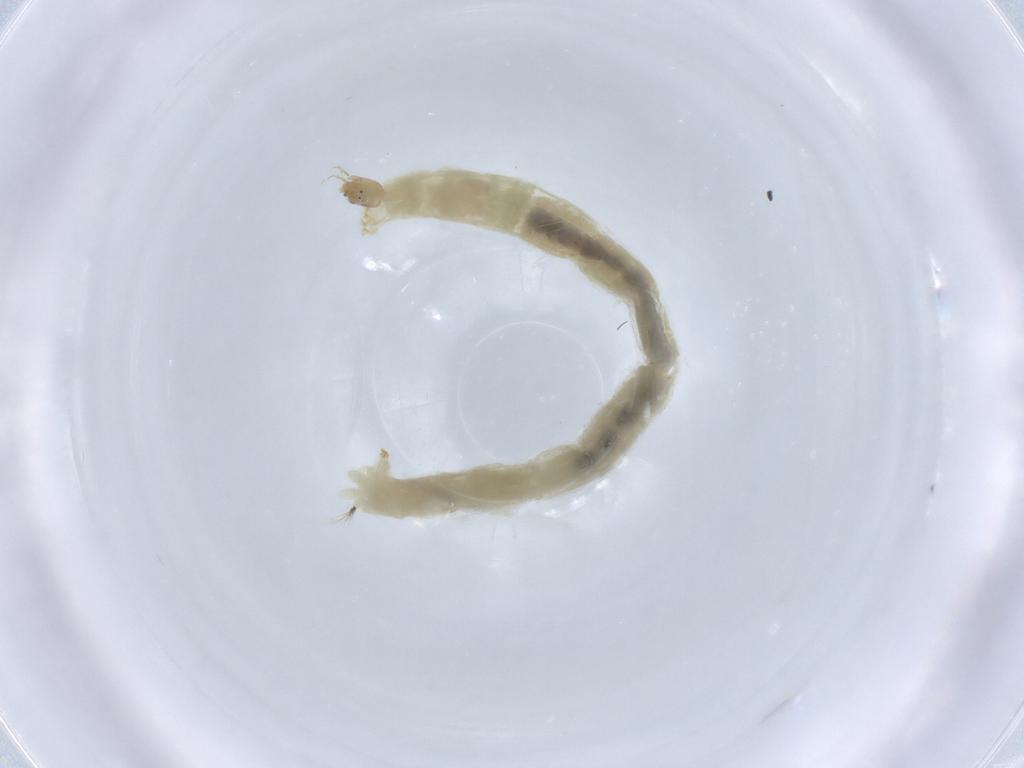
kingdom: Animalia
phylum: Arthropoda
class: Insecta
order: Diptera
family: Chironomidae
